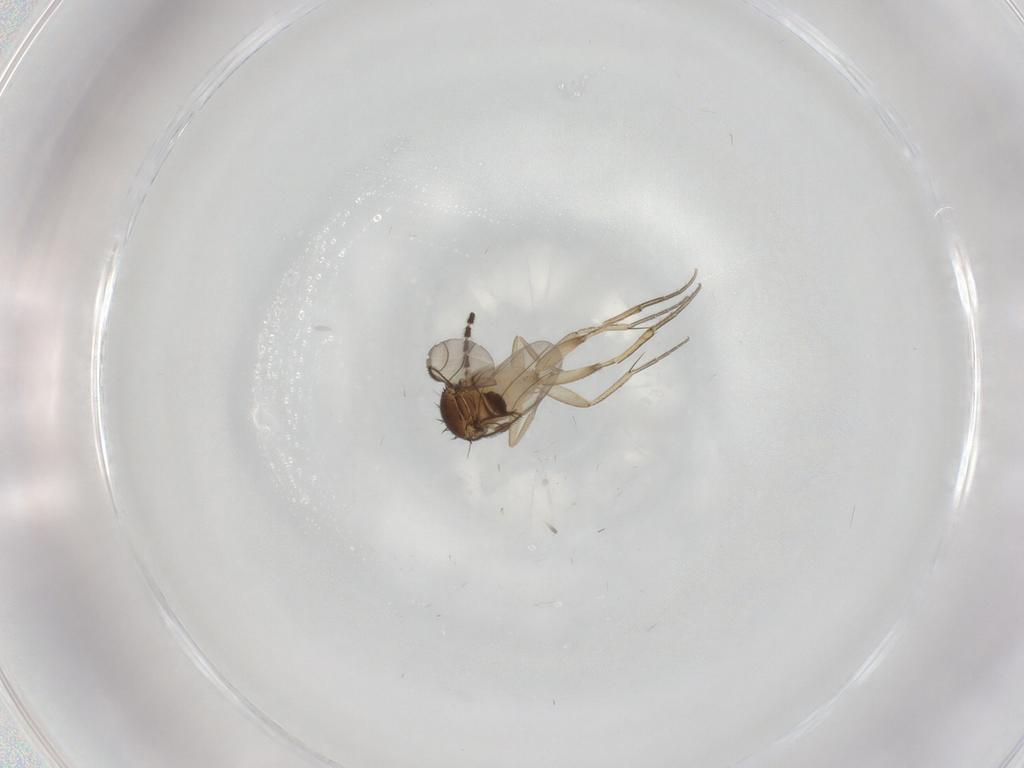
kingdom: Animalia
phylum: Arthropoda
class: Insecta
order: Diptera
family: Sciaridae
